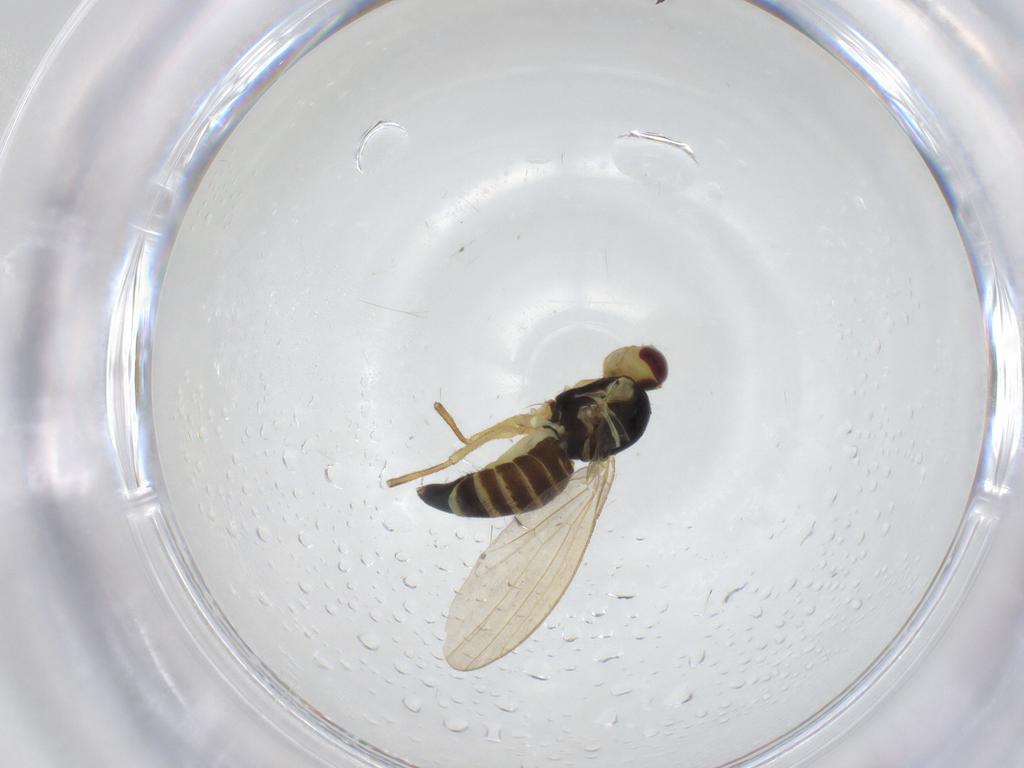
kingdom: Animalia
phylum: Arthropoda
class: Insecta
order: Diptera
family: Agromyzidae
